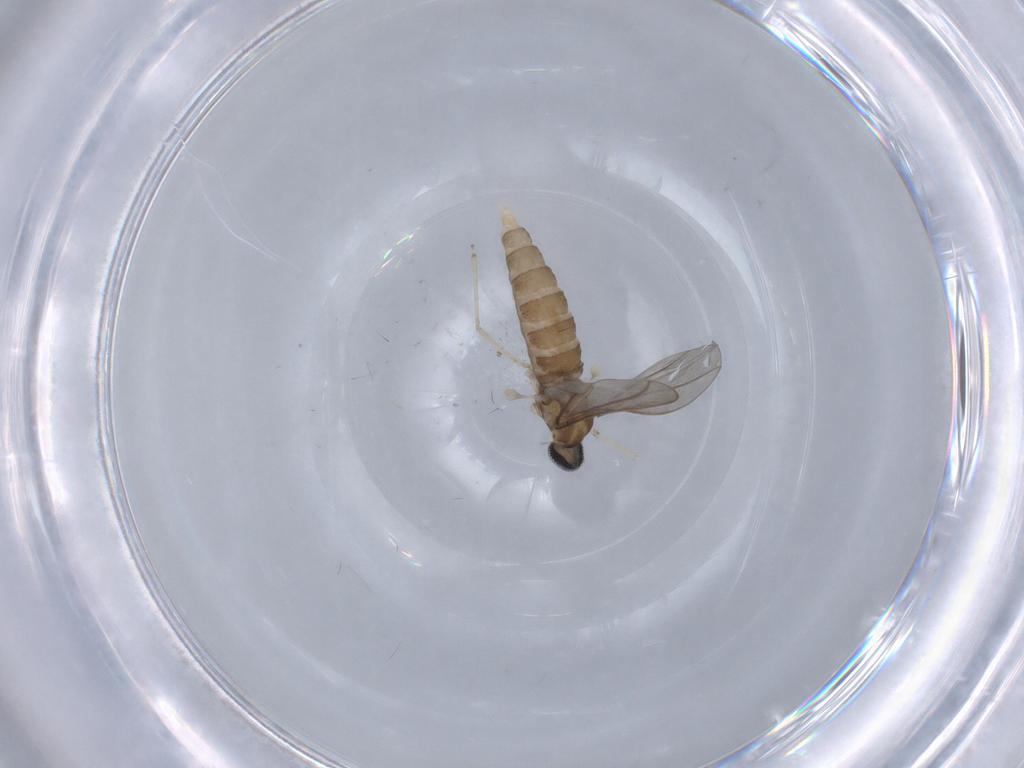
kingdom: Animalia
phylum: Arthropoda
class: Insecta
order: Diptera
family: Cecidomyiidae
